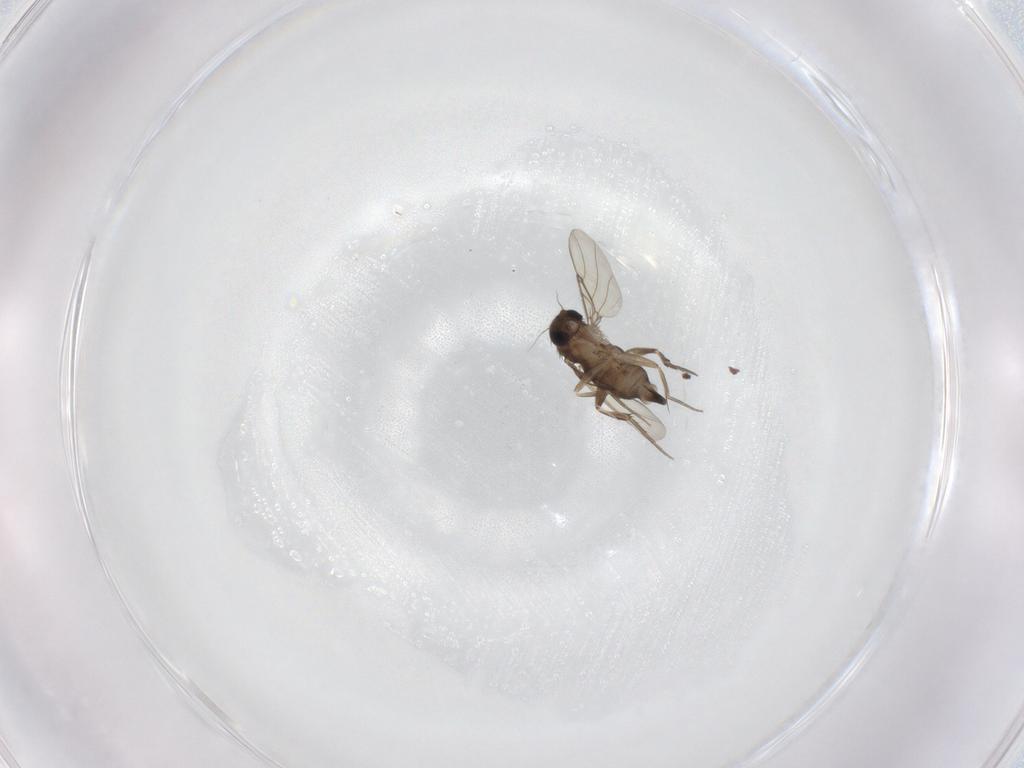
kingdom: Animalia
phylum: Arthropoda
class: Insecta
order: Diptera
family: Phoridae
